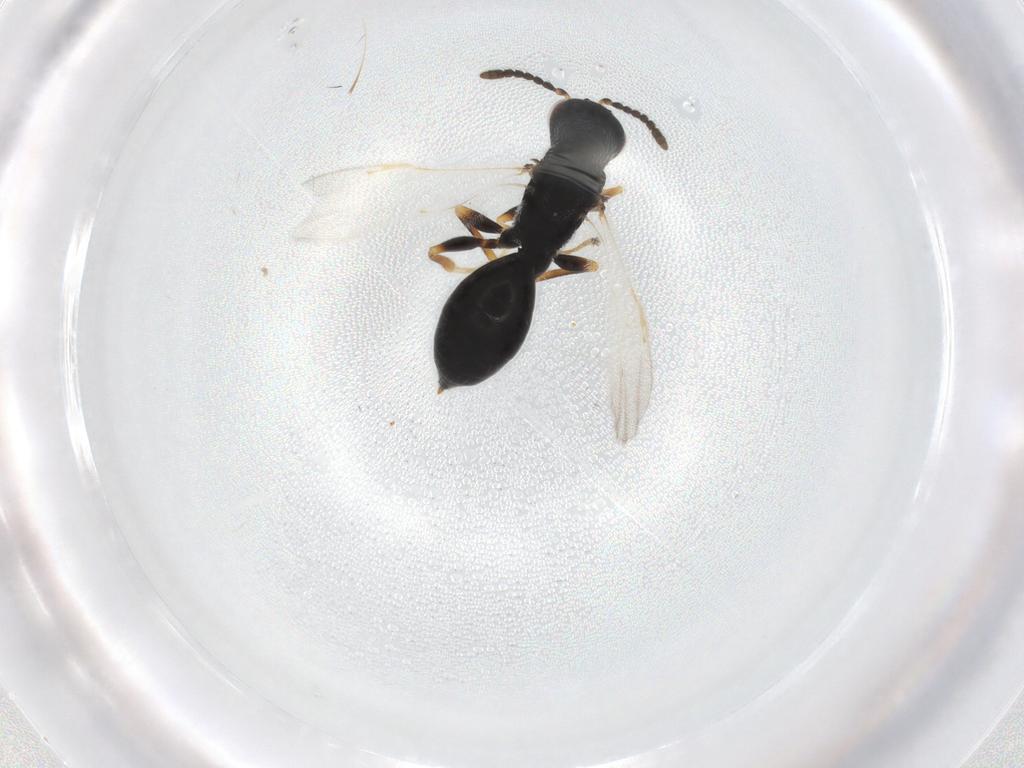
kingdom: Animalia
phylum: Arthropoda
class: Insecta
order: Hymenoptera
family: Eurytomidae
